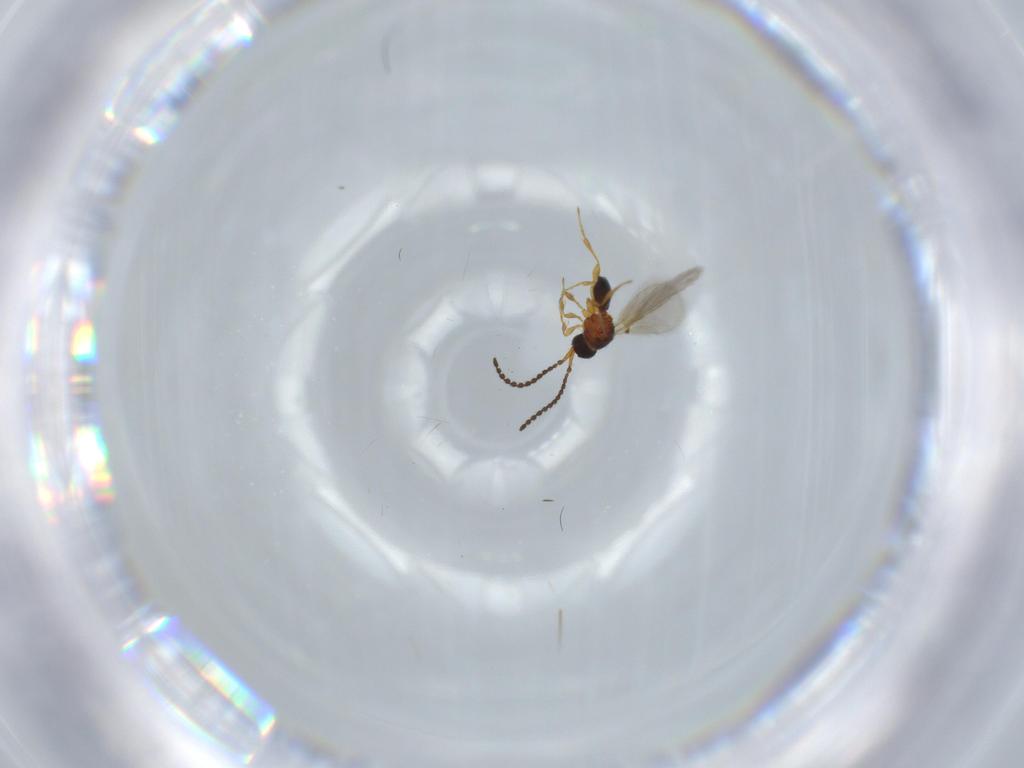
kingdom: Animalia
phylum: Arthropoda
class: Insecta
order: Hymenoptera
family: Diapriidae
